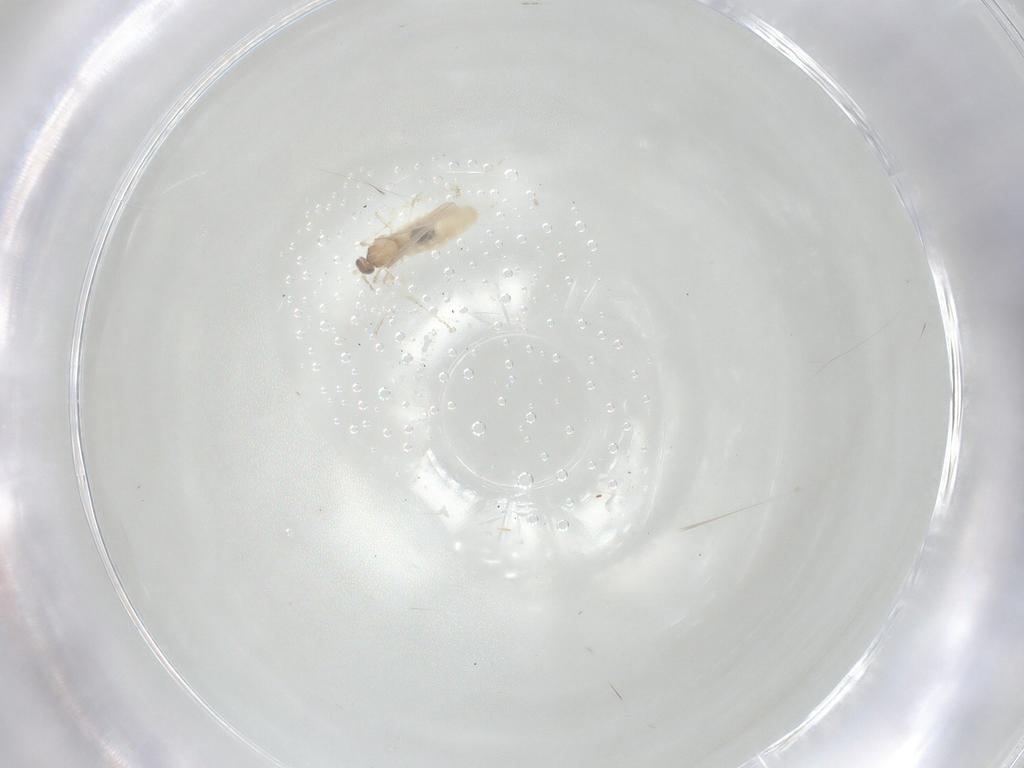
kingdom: Animalia
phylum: Arthropoda
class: Insecta
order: Diptera
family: Cecidomyiidae
